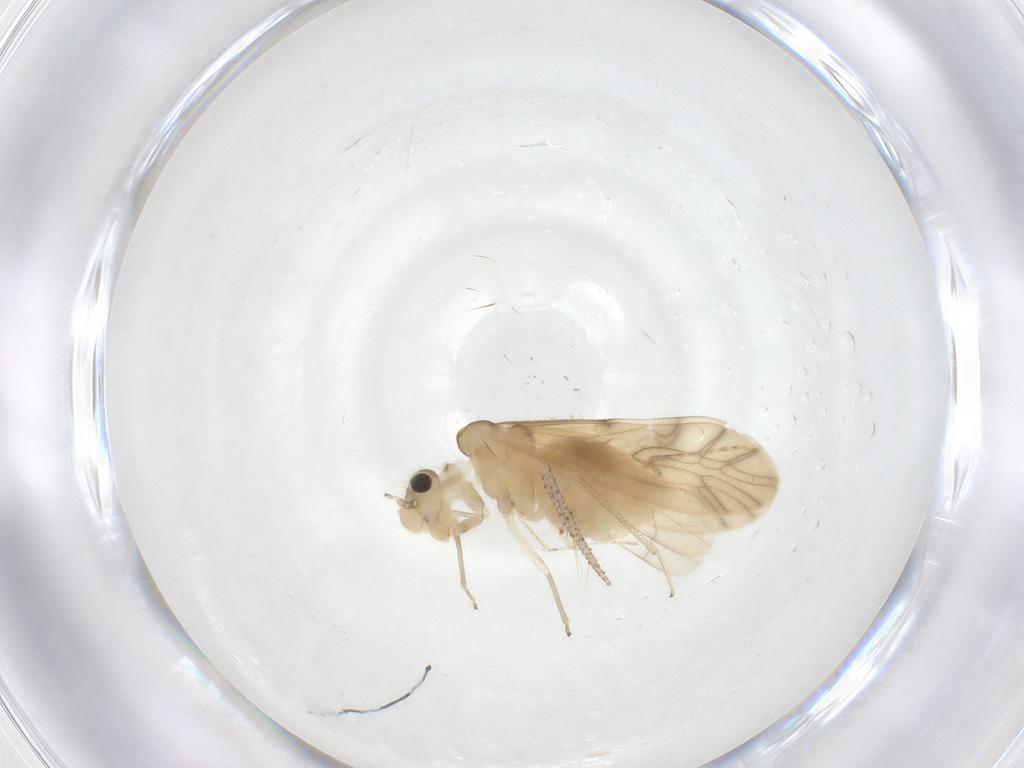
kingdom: Animalia
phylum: Arthropoda
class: Insecta
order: Psocodea
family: Caeciliusidae
